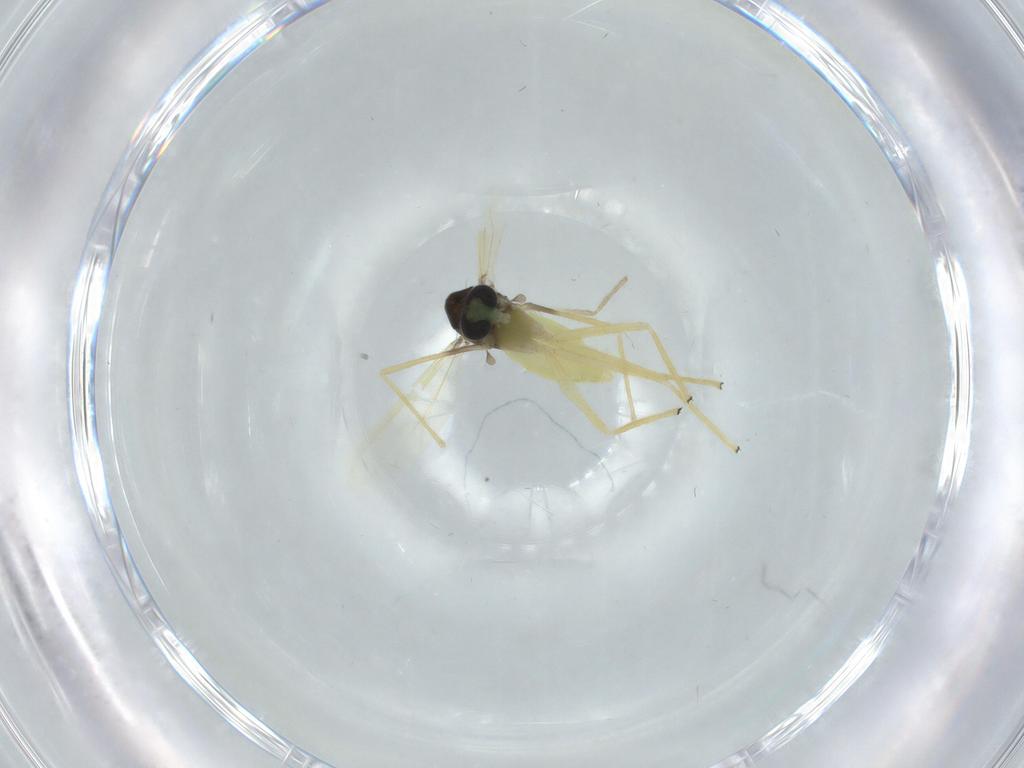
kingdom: Animalia
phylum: Arthropoda
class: Insecta
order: Diptera
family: Chironomidae
